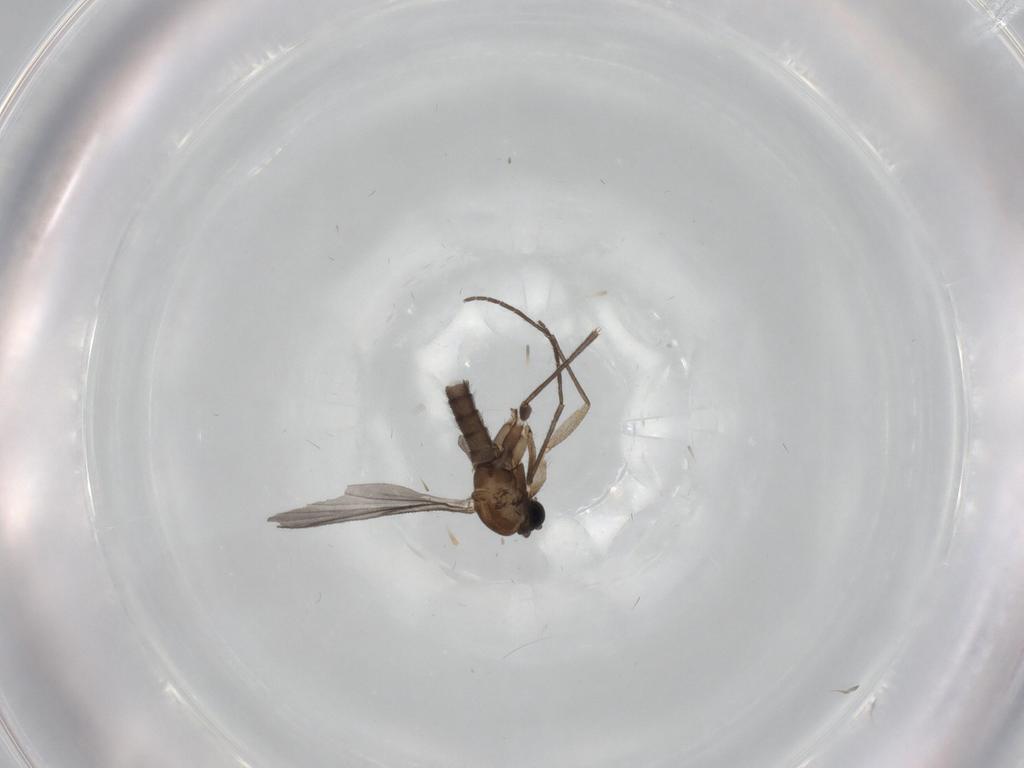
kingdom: Animalia
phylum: Arthropoda
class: Insecta
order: Diptera
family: Sciaridae
